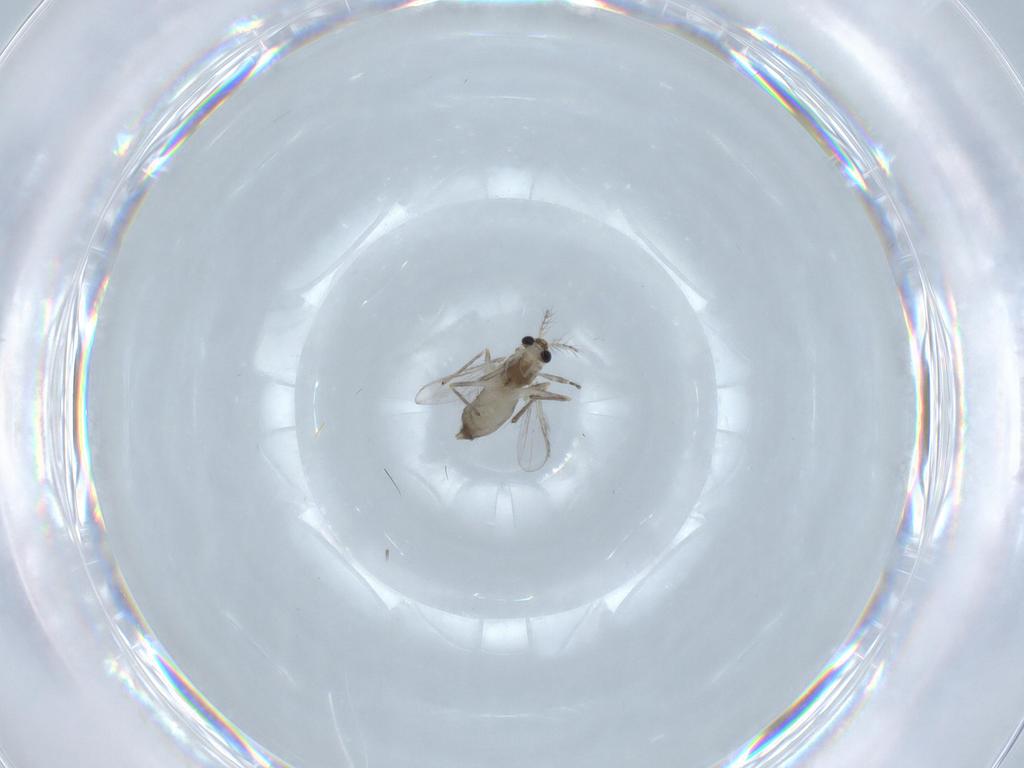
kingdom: Animalia
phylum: Arthropoda
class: Insecta
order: Diptera
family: Chironomidae
